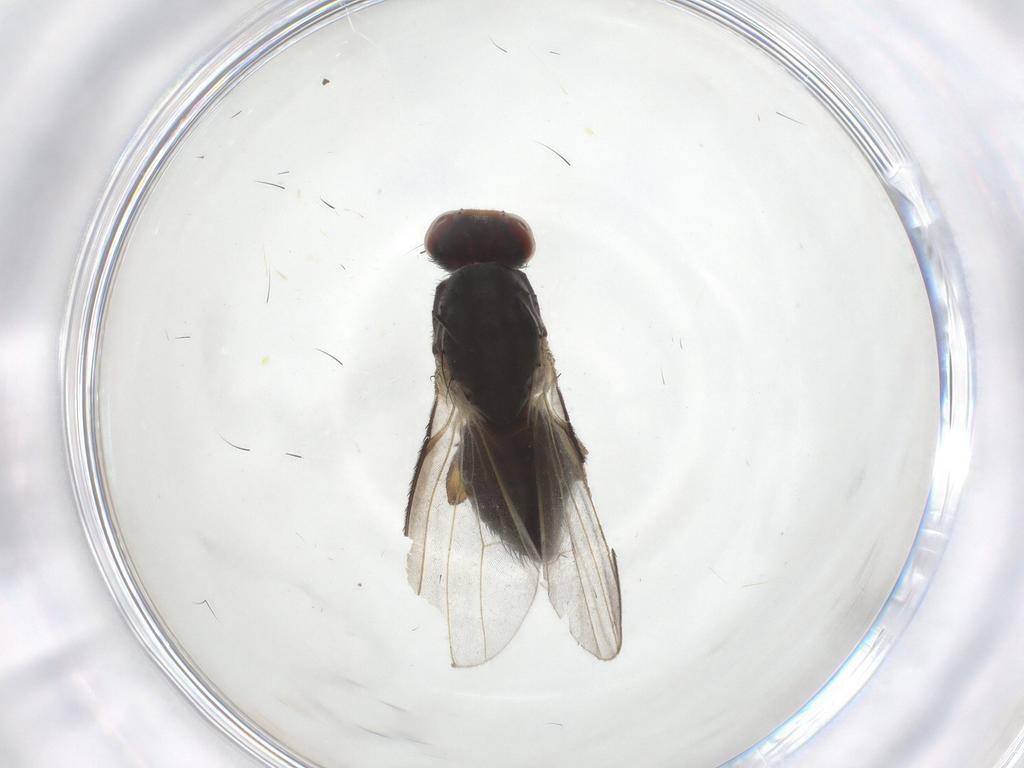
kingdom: Animalia
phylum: Arthropoda
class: Insecta
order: Diptera
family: Heleomyzidae
